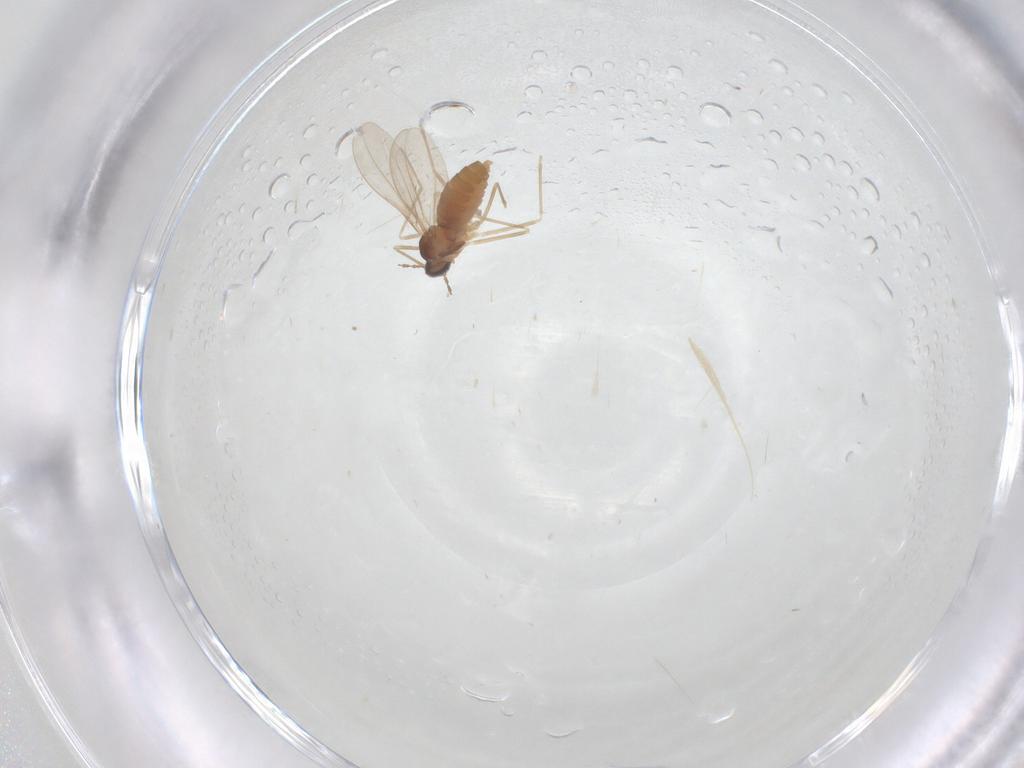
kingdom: Animalia
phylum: Arthropoda
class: Insecta
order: Diptera
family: Cecidomyiidae
